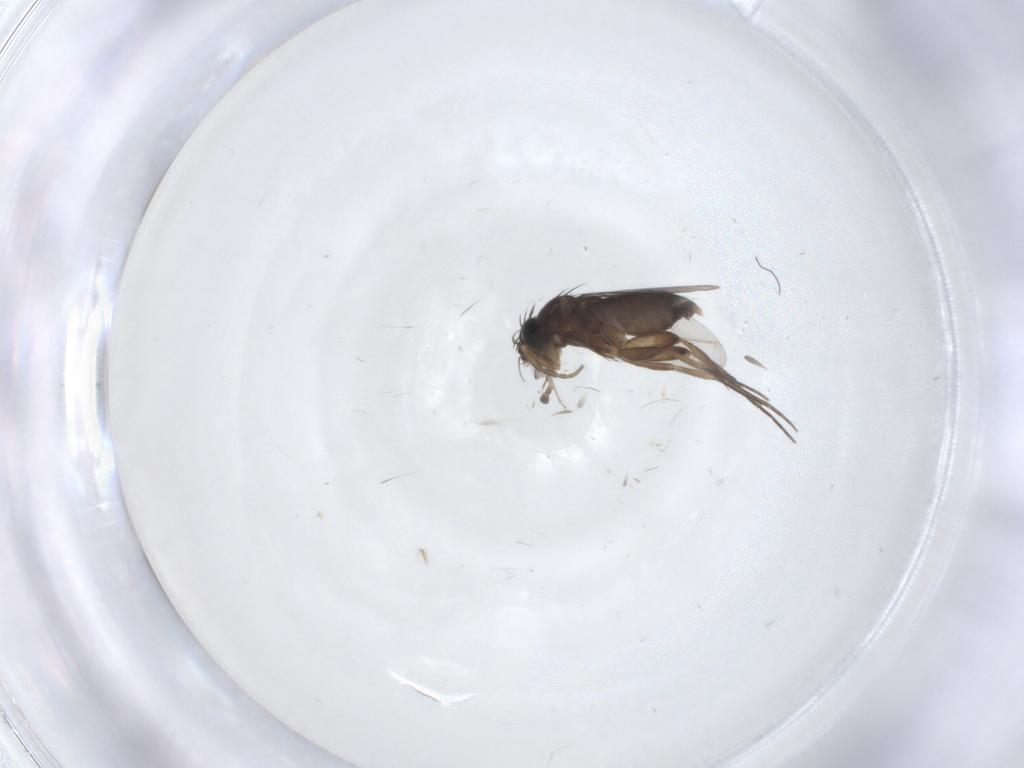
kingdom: Animalia
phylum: Arthropoda
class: Insecta
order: Diptera
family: Phoridae
